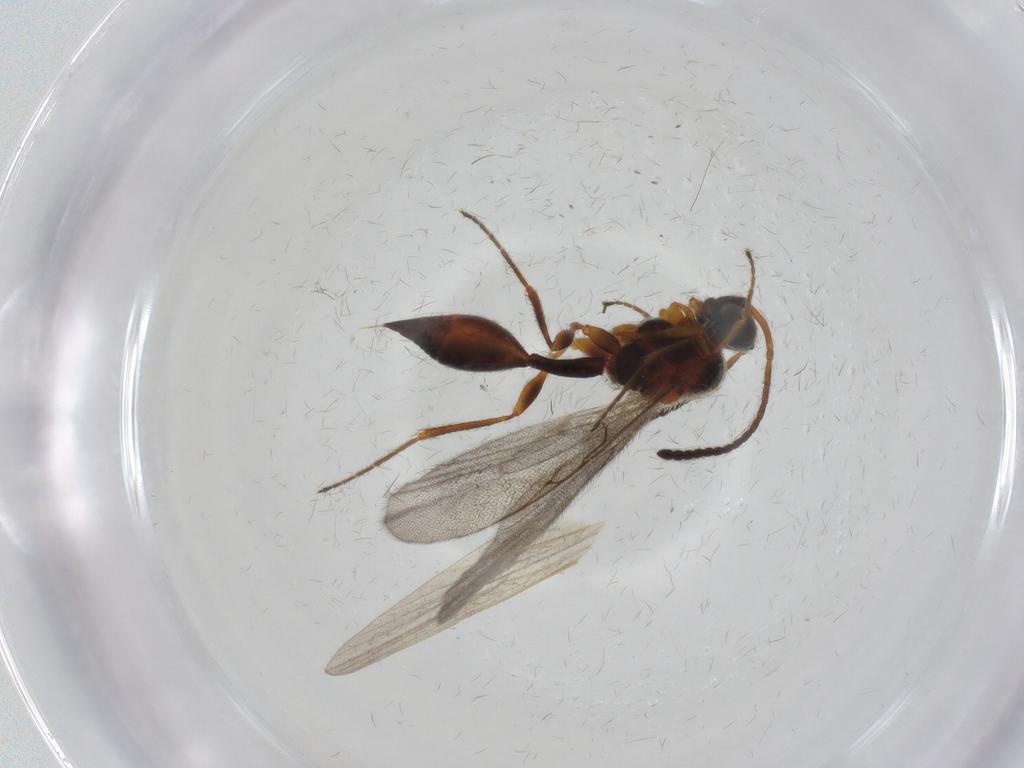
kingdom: Animalia
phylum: Arthropoda
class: Insecta
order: Hymenoptera
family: Diapriidae
